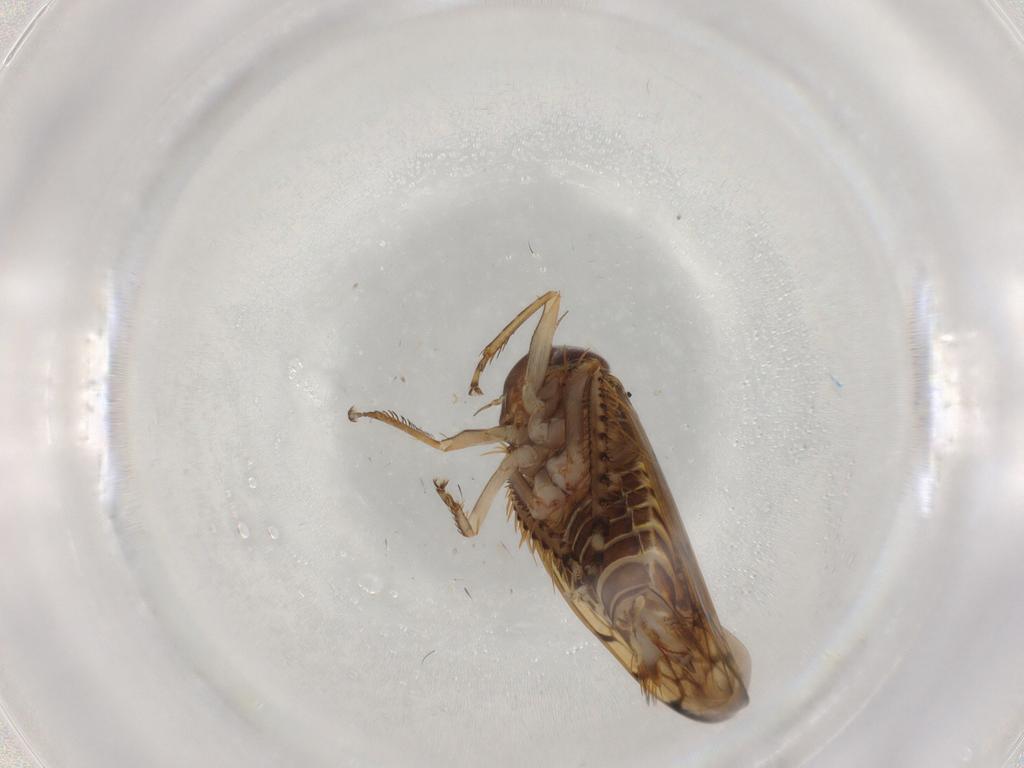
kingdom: Animalia
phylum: Arthropoda
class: Insecta
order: Hemiptera
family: Cicadellidae
